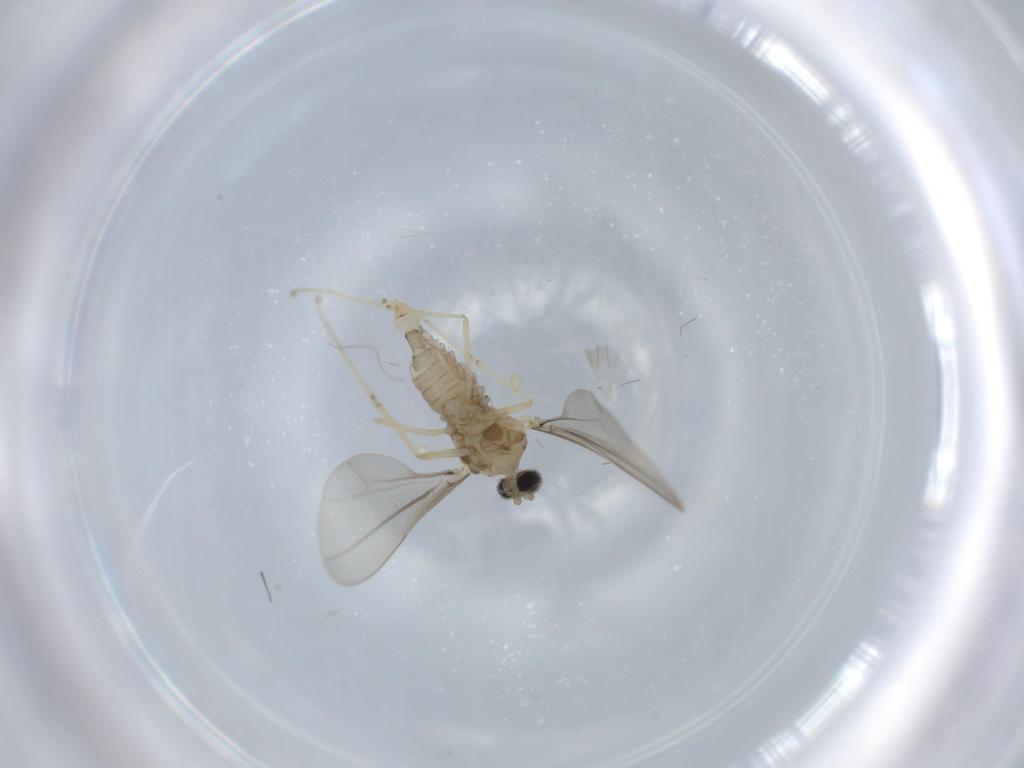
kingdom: Animalia
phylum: Arthropoda
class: Insecta
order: Diptera
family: Cecidomyiidae
